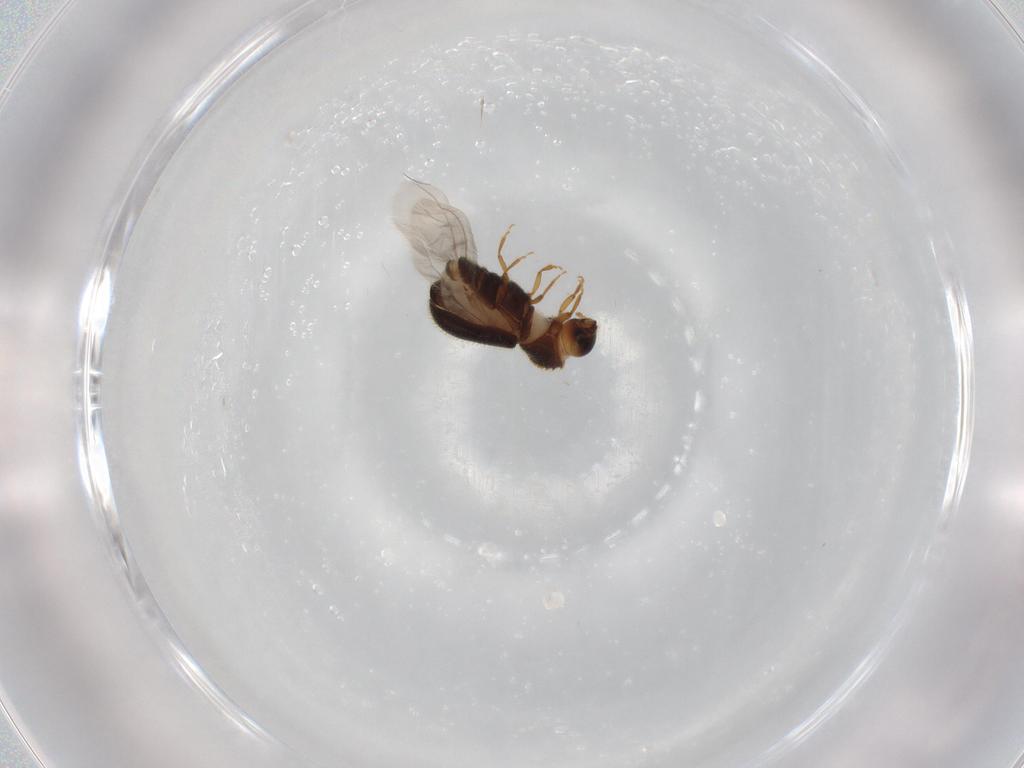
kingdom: Animalia
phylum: Arthropoda
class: Insecta
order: Coleoptera
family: Curculionidae
